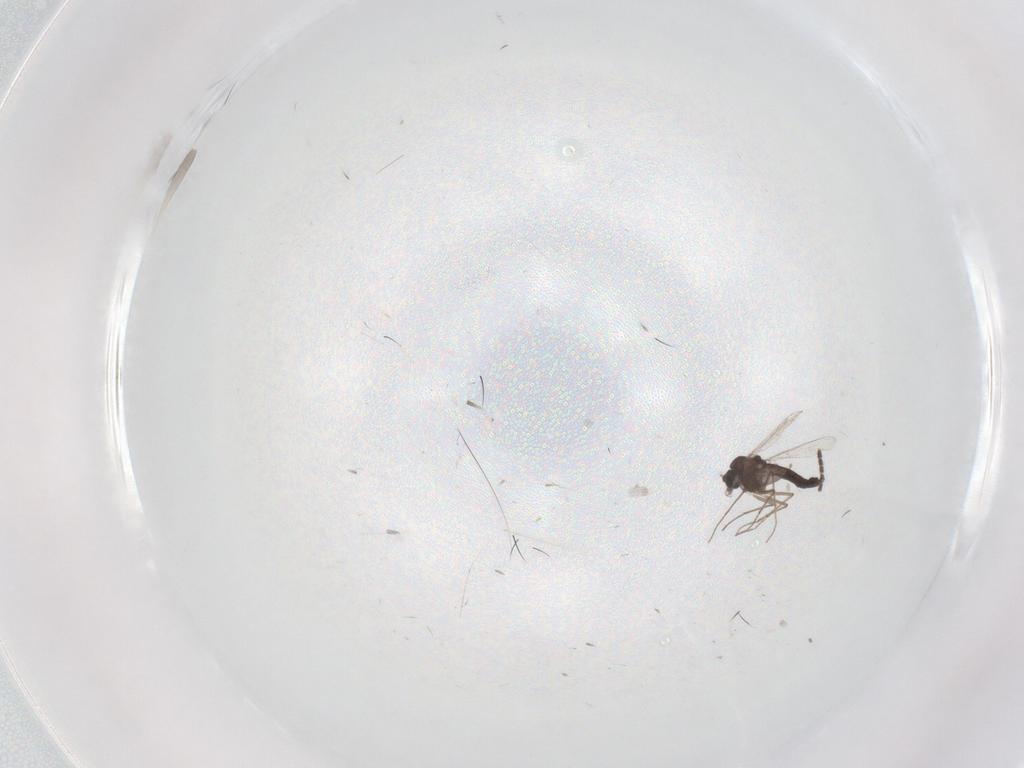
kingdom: Animalia
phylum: Arthropoda
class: Insecta
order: Diptera
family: Chironomidae
